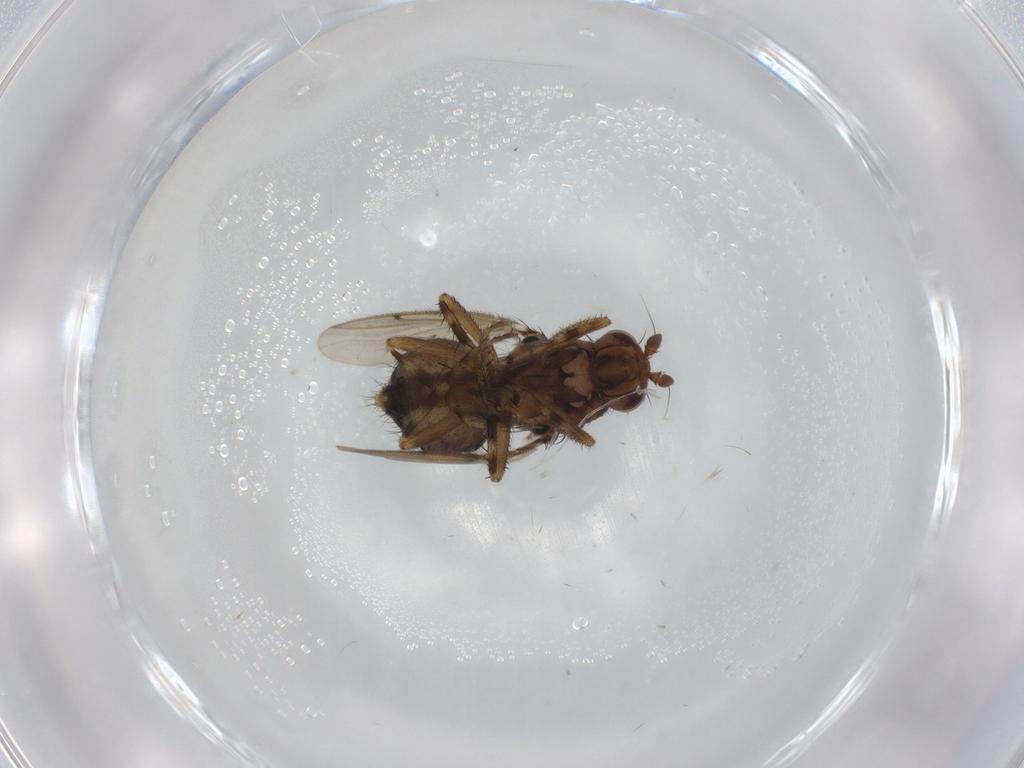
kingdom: Animalia
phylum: Arthropoda
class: Insecta
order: Diptera
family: Sphaeroceridae
